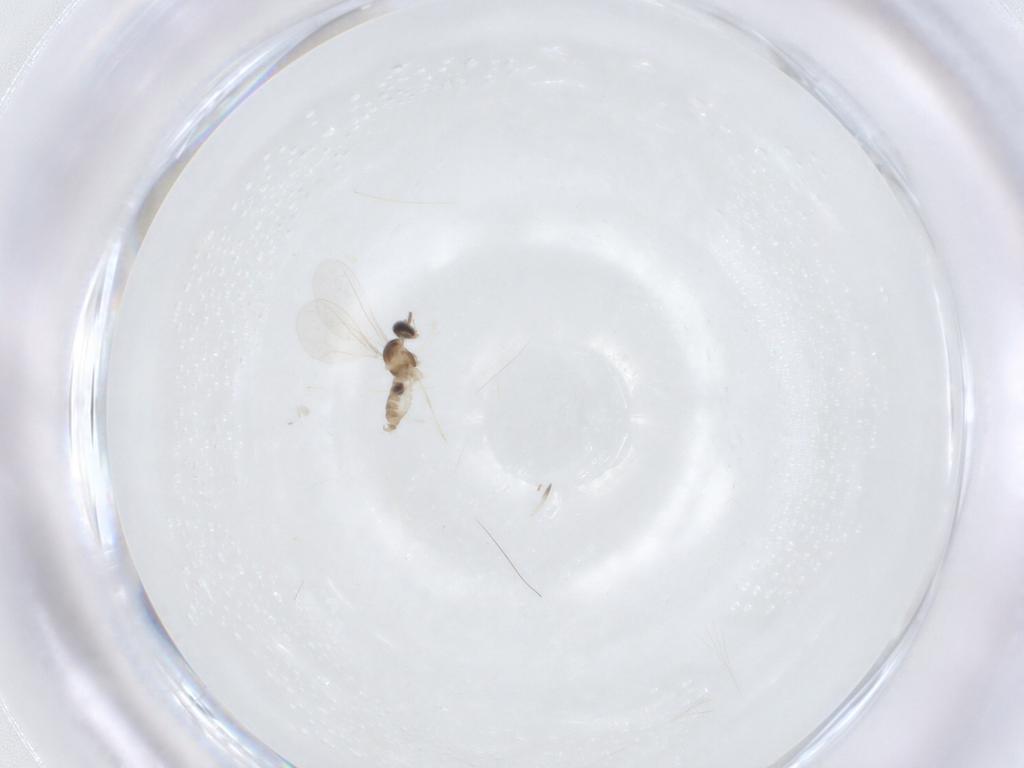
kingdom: Animalia
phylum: Arthropoda
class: Insecta
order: Diptera
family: Cecidomyiidae
